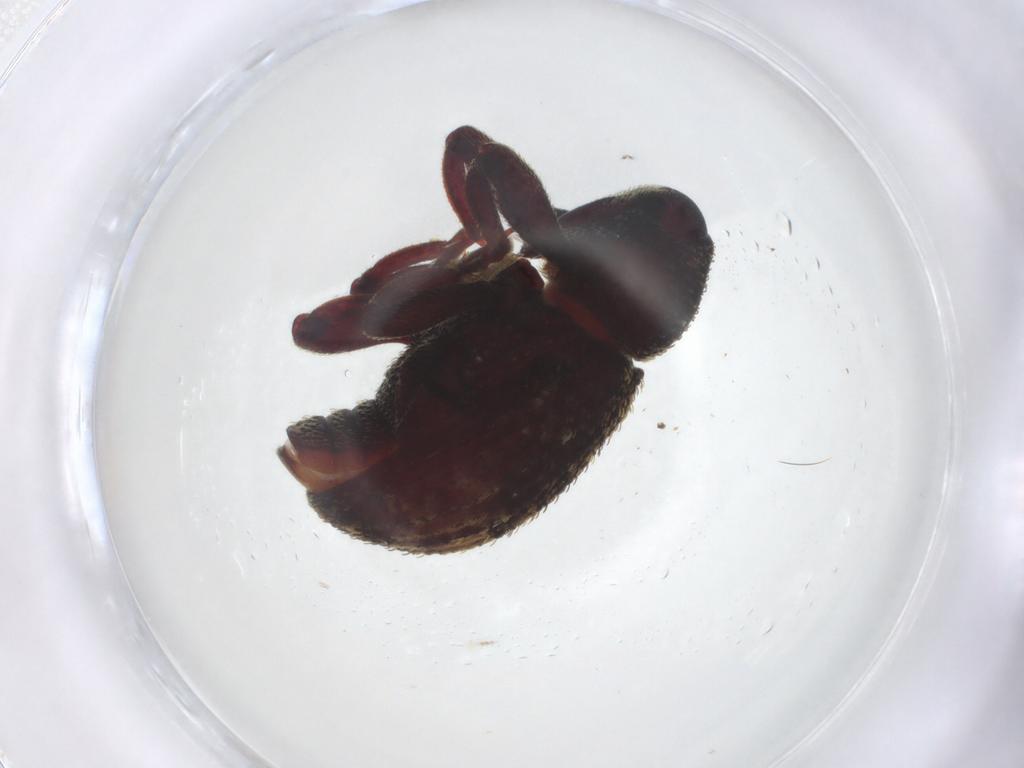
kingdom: Animalia
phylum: Arthropoda
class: Insecta
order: Coleoptera
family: Curculionidae
